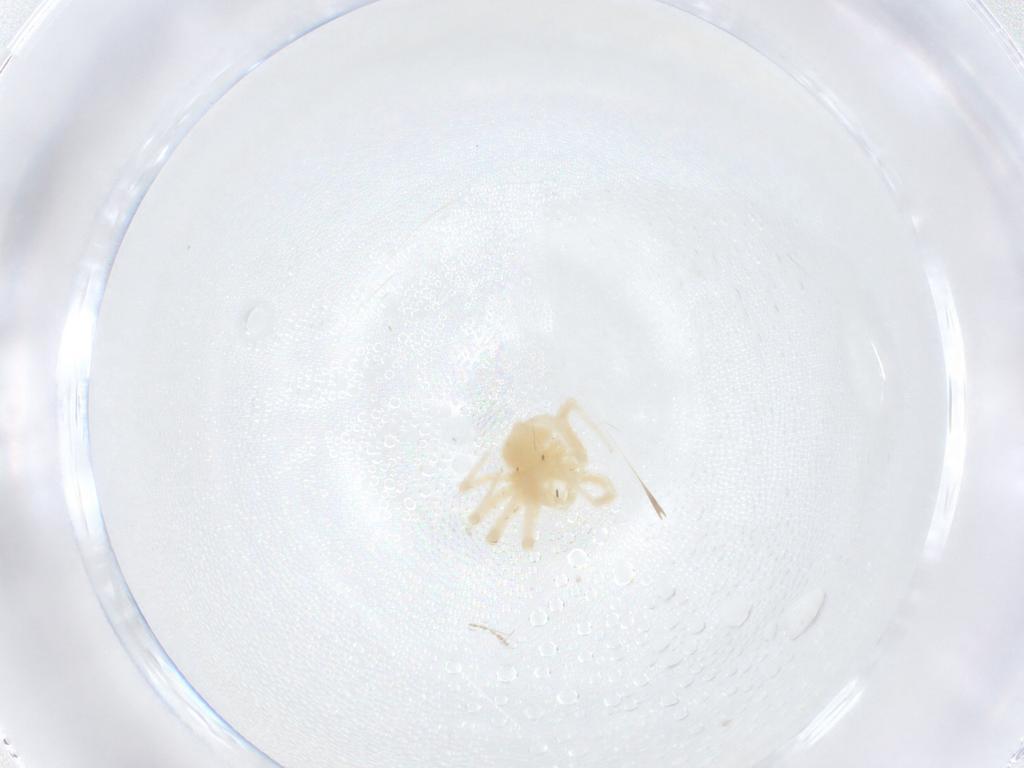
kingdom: Animalia
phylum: Arthropoda
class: Arachnida
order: Trombidiformes
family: Anystidae
